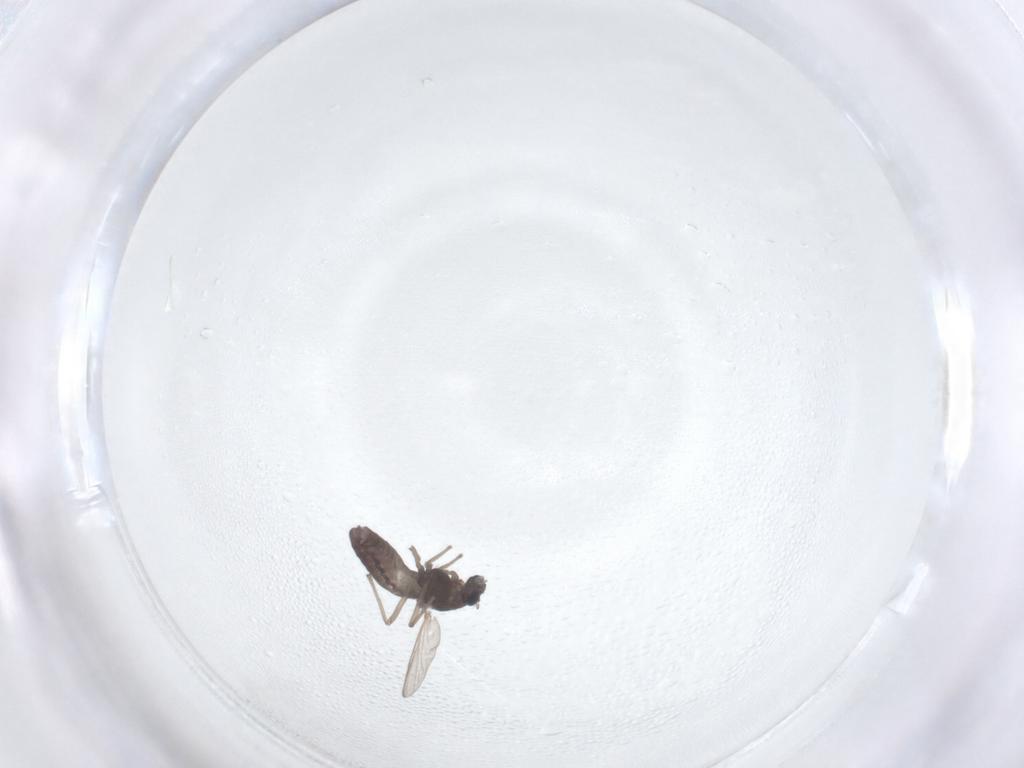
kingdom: Animalia
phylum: Arthropoda
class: Insecta
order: Diptera
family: Chironomidae
